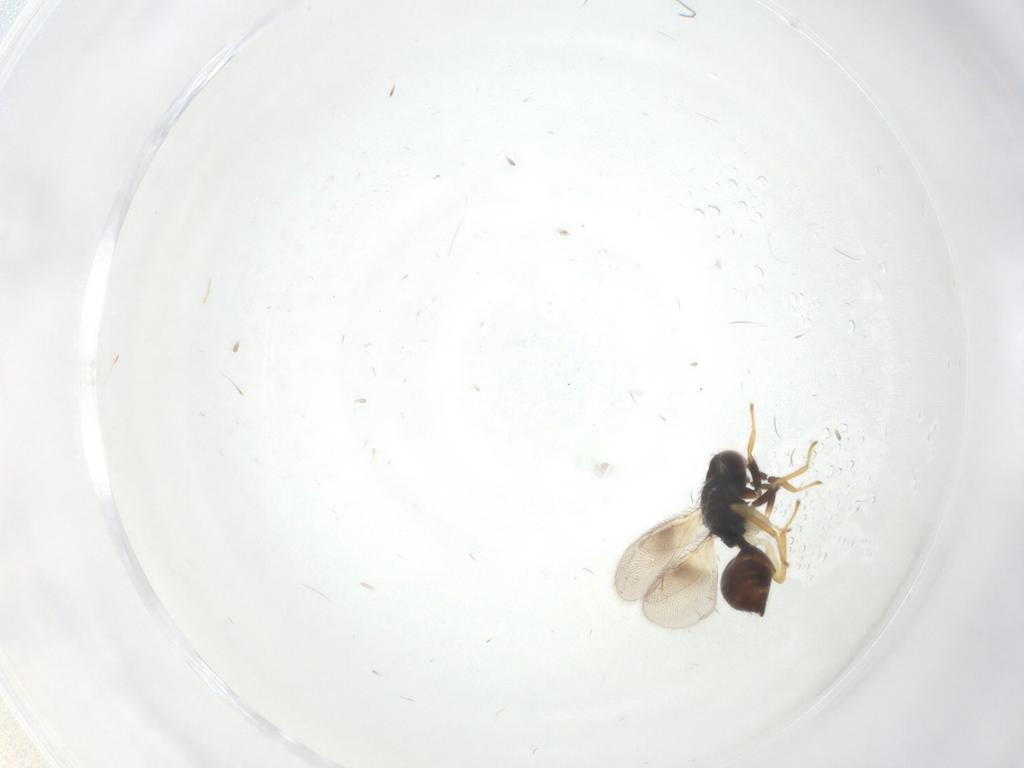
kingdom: Animalia
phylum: Arthropoda
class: Insecta
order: Hymenoptera
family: Eulophidae
